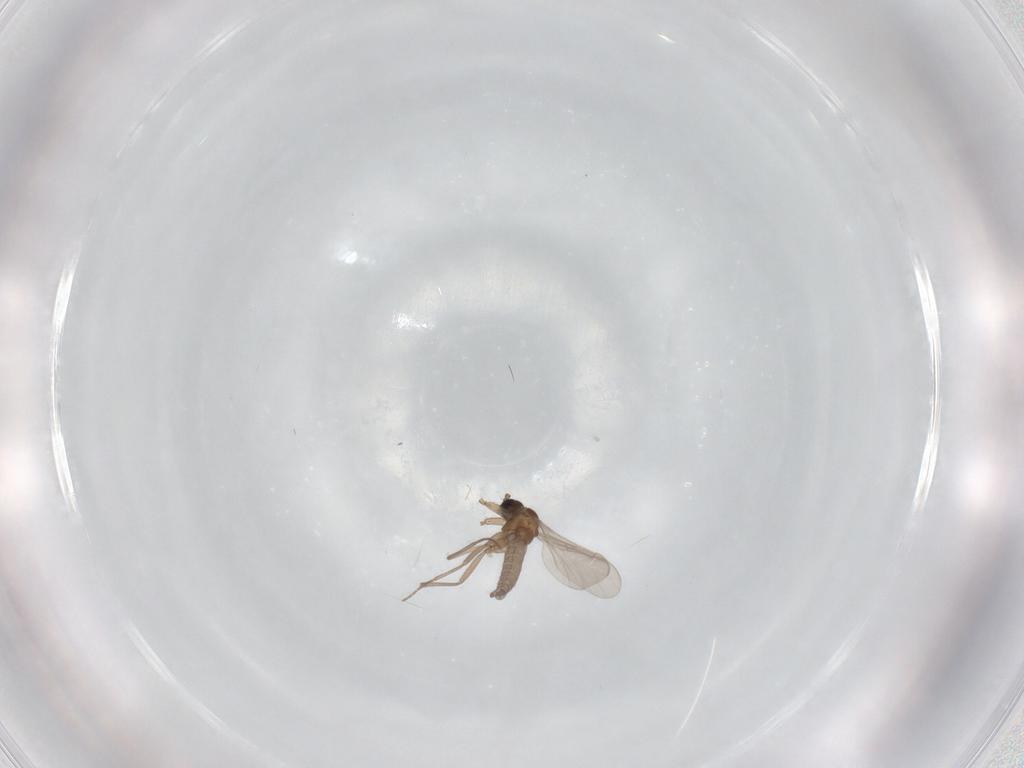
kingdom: Animalia
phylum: Arthropoda
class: Insecta
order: Diptera
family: Sciaridae
